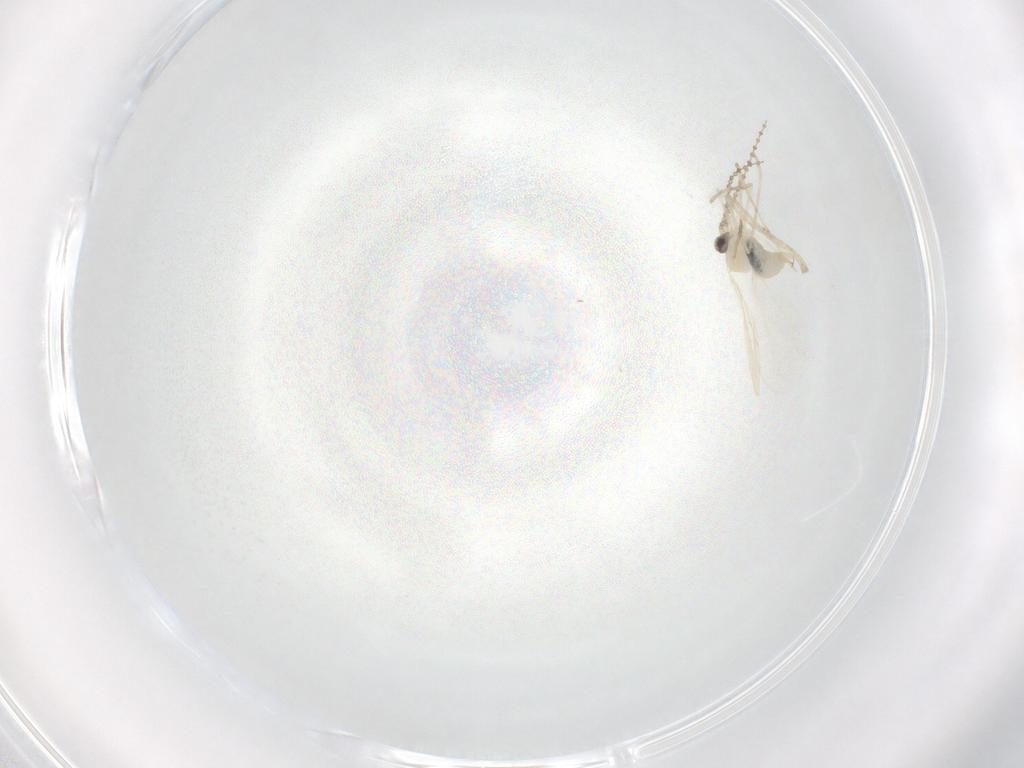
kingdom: Animalia
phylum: Arthropoda
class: Insecta
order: Diptera
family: Cecidomyiidae
